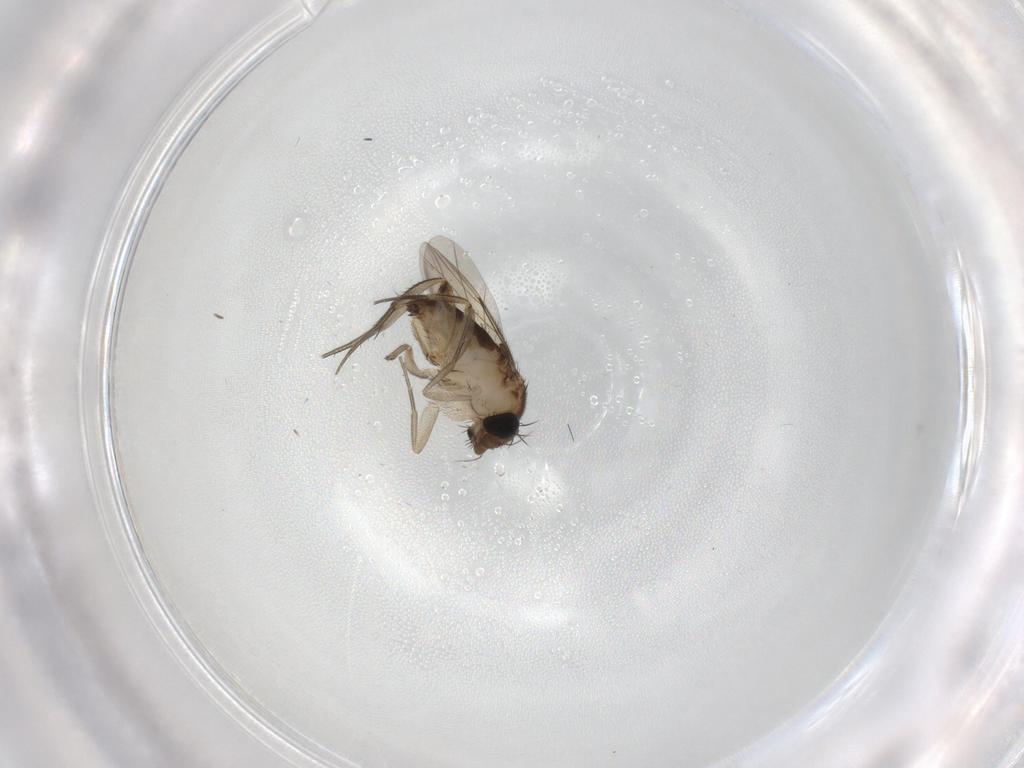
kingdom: Animalia
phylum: Arthropoda
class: Insecta
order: Diptera
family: Phoridae
